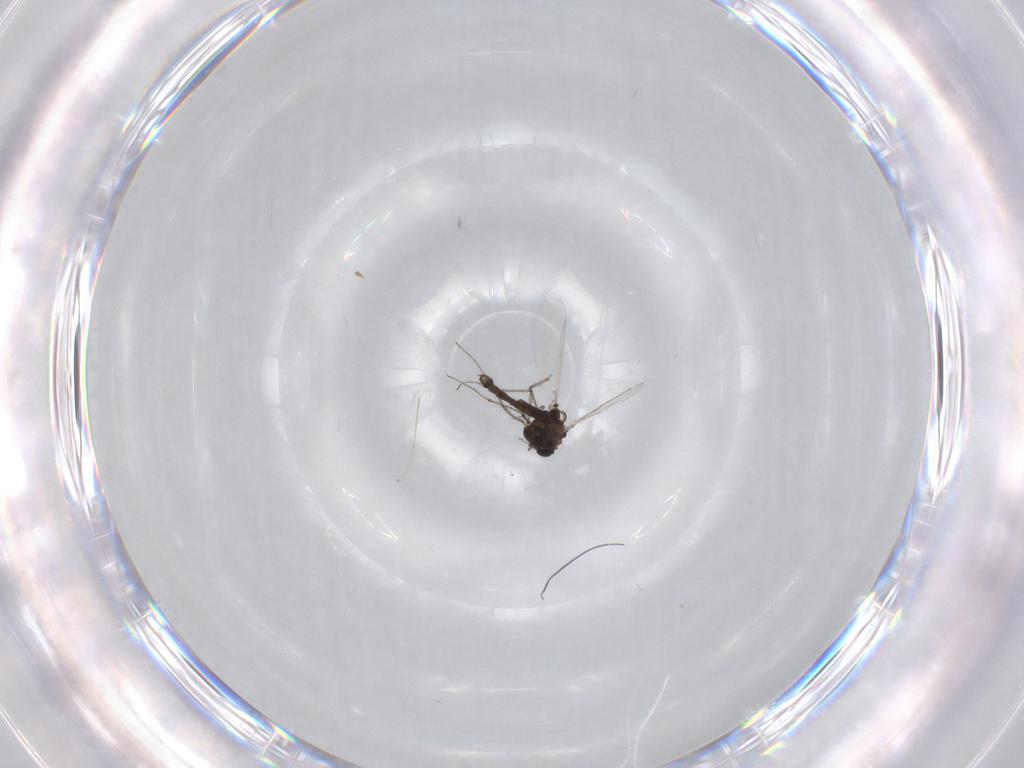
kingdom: Animalia
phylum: Arthropoda
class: Insecta
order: Diptera
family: Chironomidae
